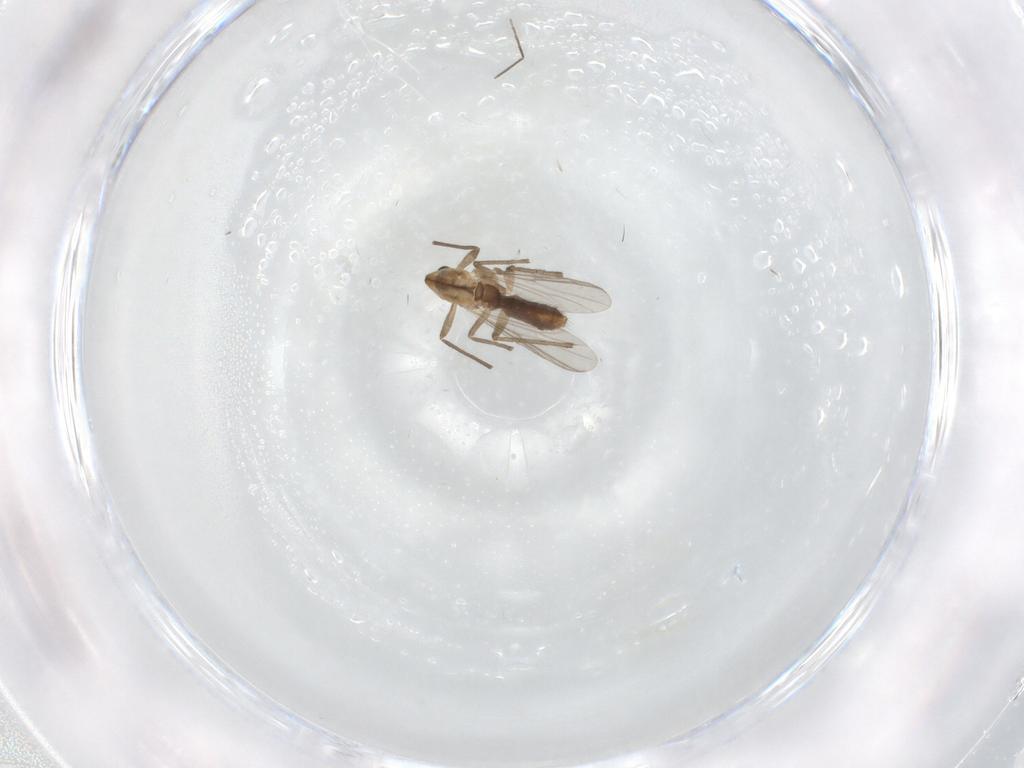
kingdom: Animalia
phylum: Arthropoda
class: Insecta
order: Diptera
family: Chironomidae
